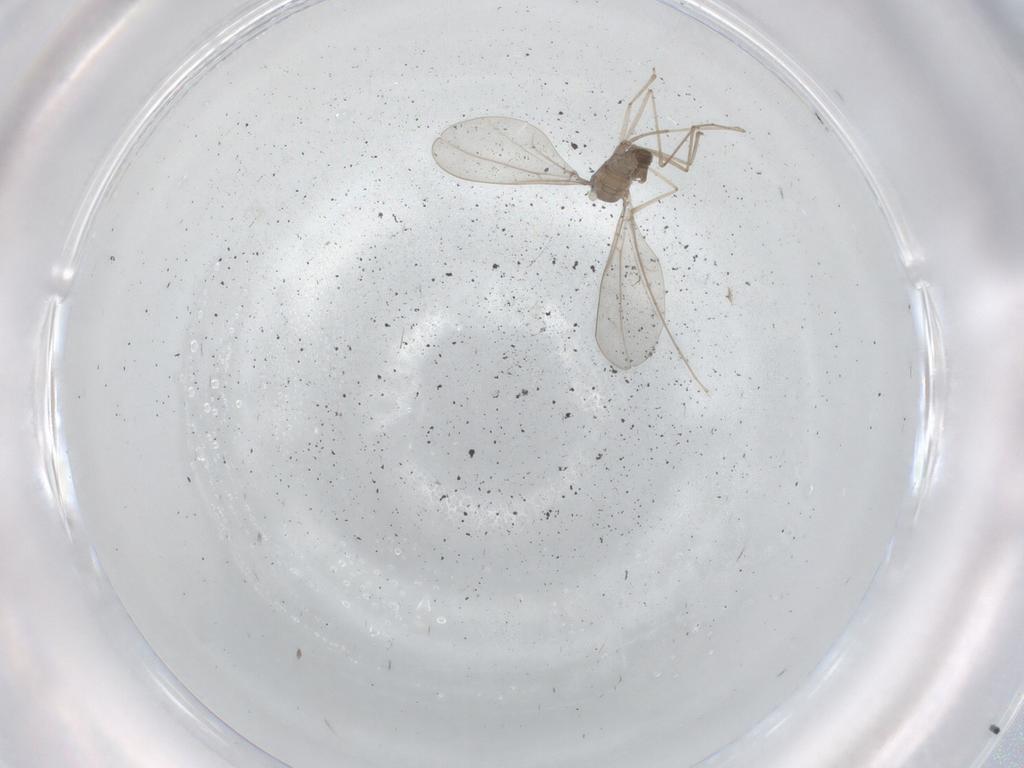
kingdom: Animalia
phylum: Arthropoda
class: Insecta
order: Diptera
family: Cecidomyiidae
